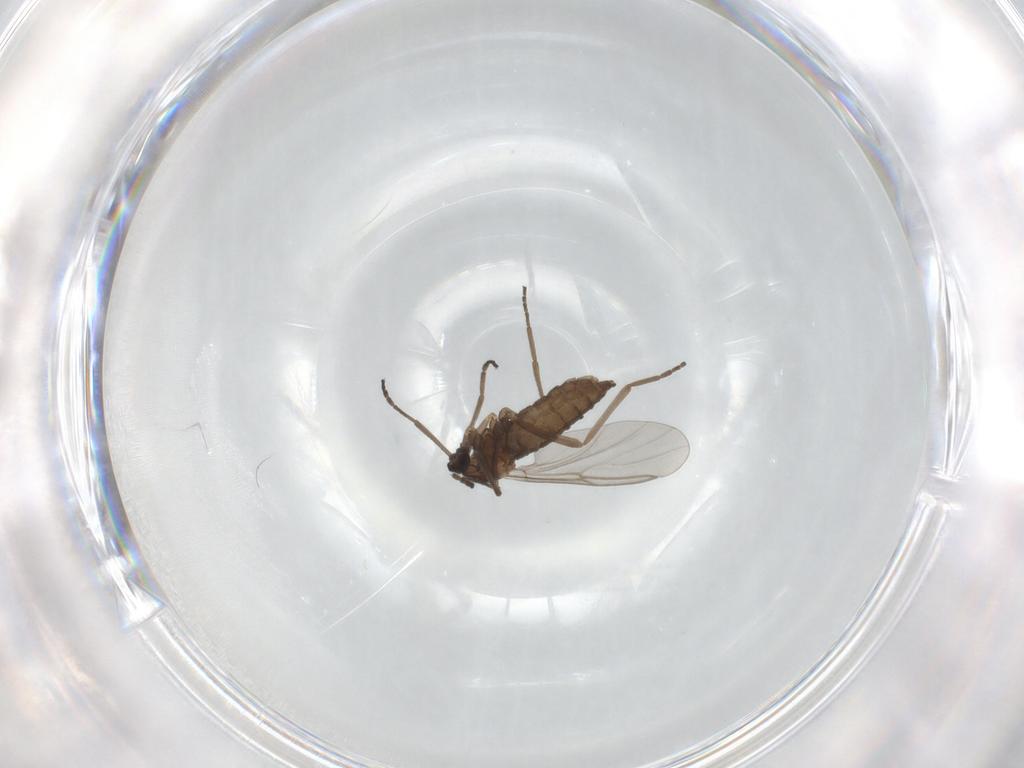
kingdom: Animalia
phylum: Arthropoda
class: Insecta
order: Diptera
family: Cecidomyiidae
